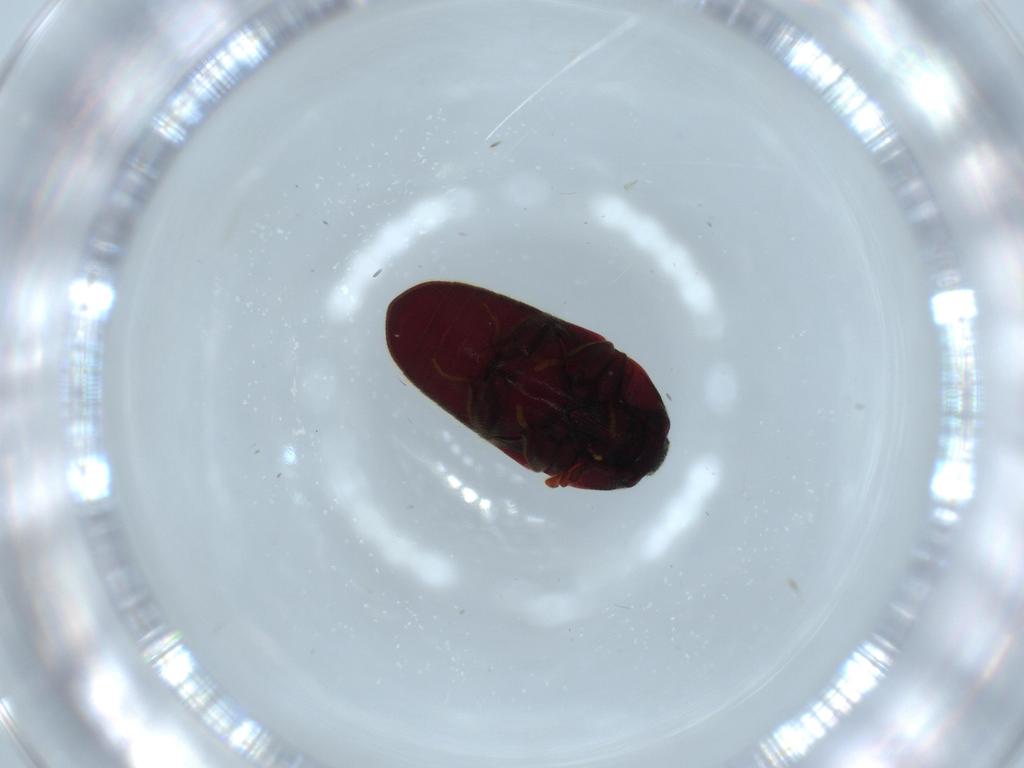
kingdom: Animalia
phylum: Arthropoda
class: Insecta
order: Coleoptera
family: Throscidae
